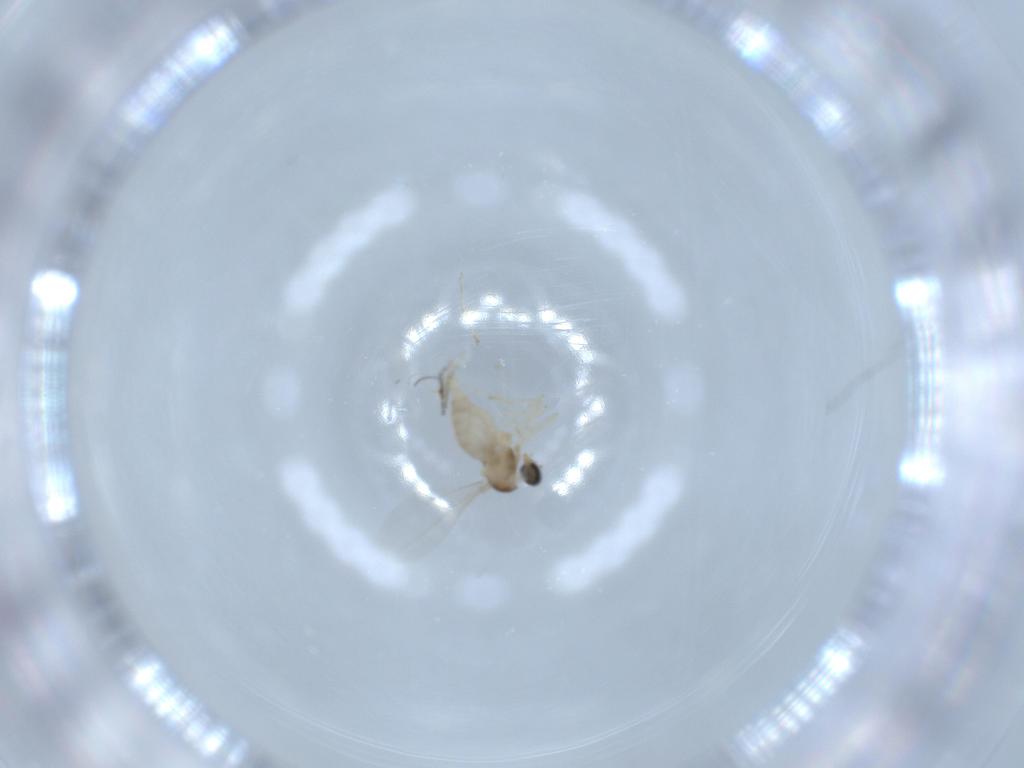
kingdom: Animalia
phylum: Arthropoda
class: Insecta
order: Diptera
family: Cecidomyiidae
